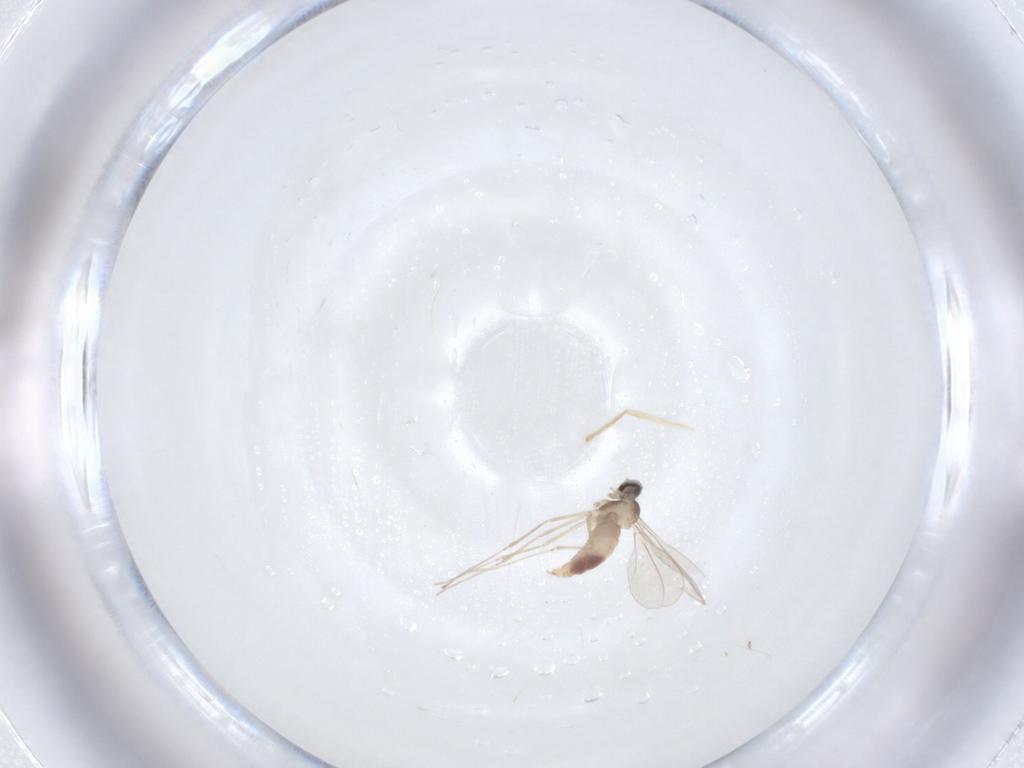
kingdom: Animalia
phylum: Arthropoda
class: Insecta
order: Diptera
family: Cecidomyiidae
